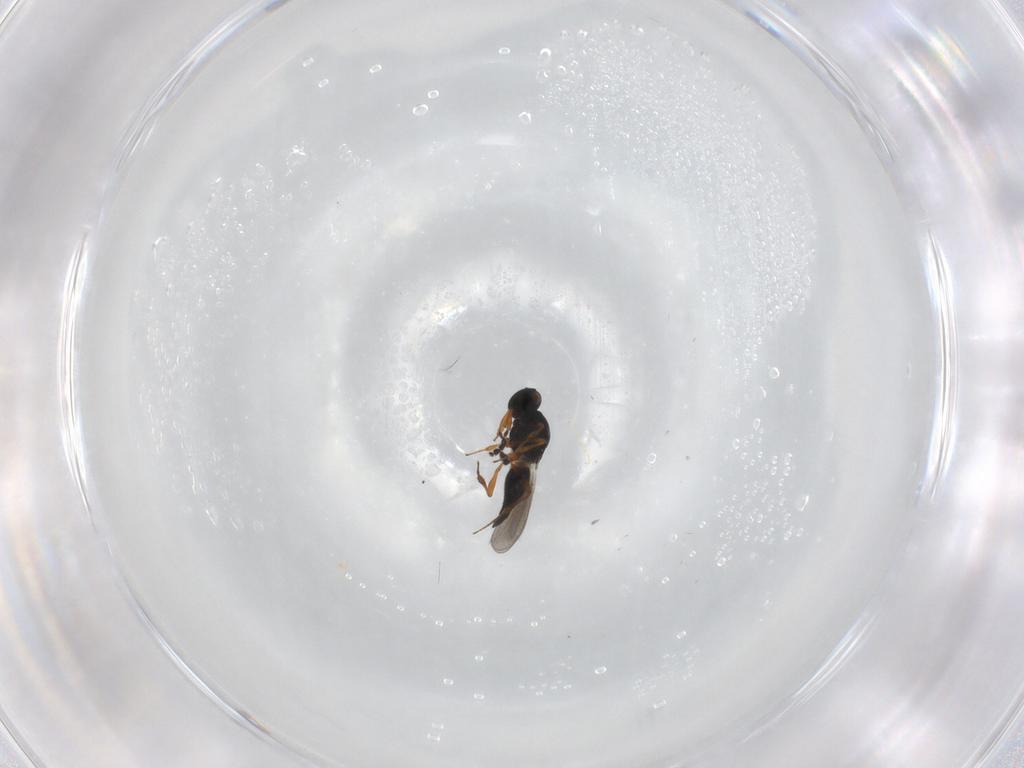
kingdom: Animalia
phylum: Arthropoda
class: Insecta
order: Hymenoptera
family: Platygastridae
